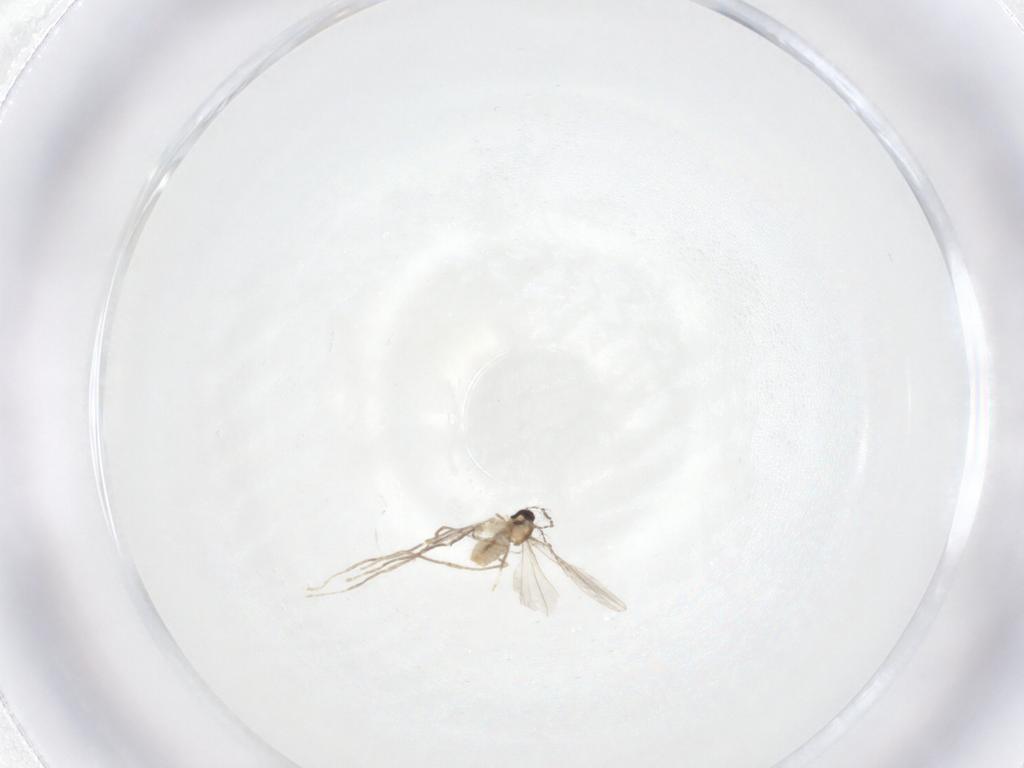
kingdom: Animalia
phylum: Arthropoda
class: Insecta
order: Diptera
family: Cecidomyiidae
